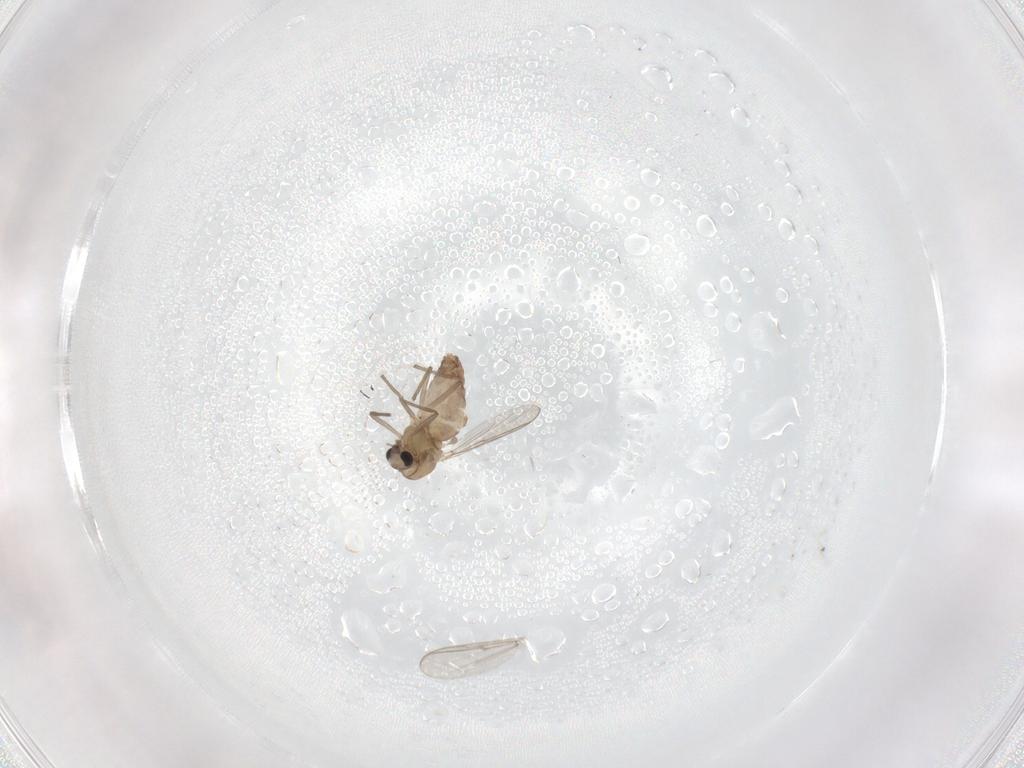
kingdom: Animalia
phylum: Arthropoda
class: Insecta
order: Diptera
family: Chironomidae
